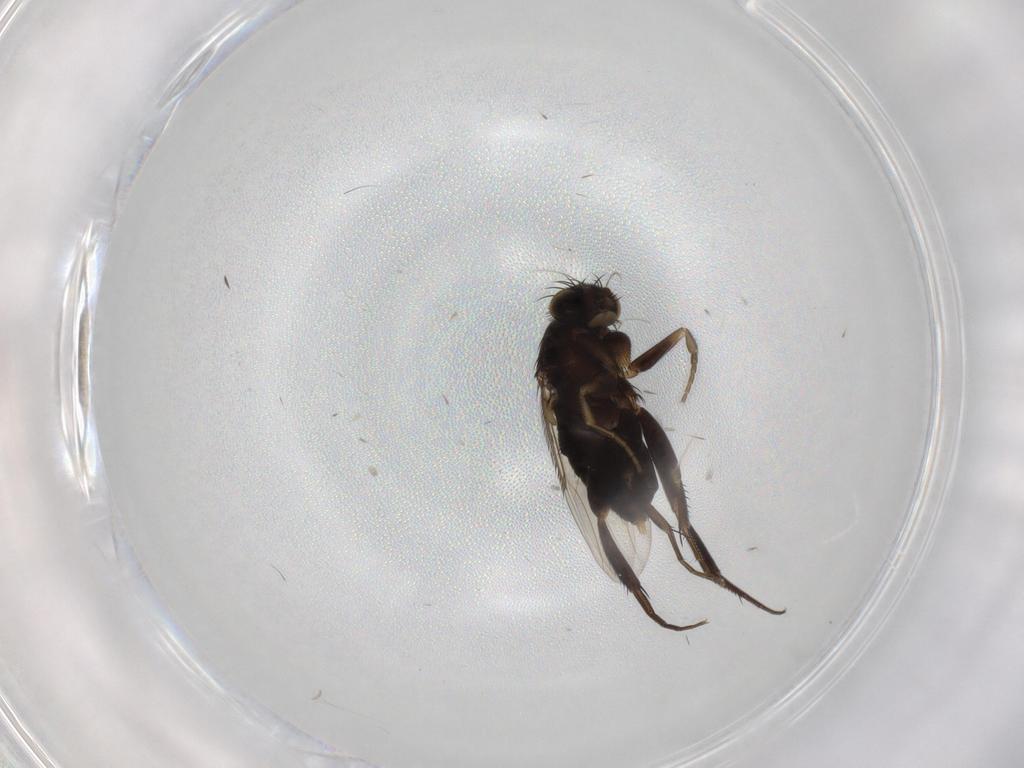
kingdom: Animalia
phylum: Arthropoda
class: Insecta
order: Diptera
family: Phoridae
